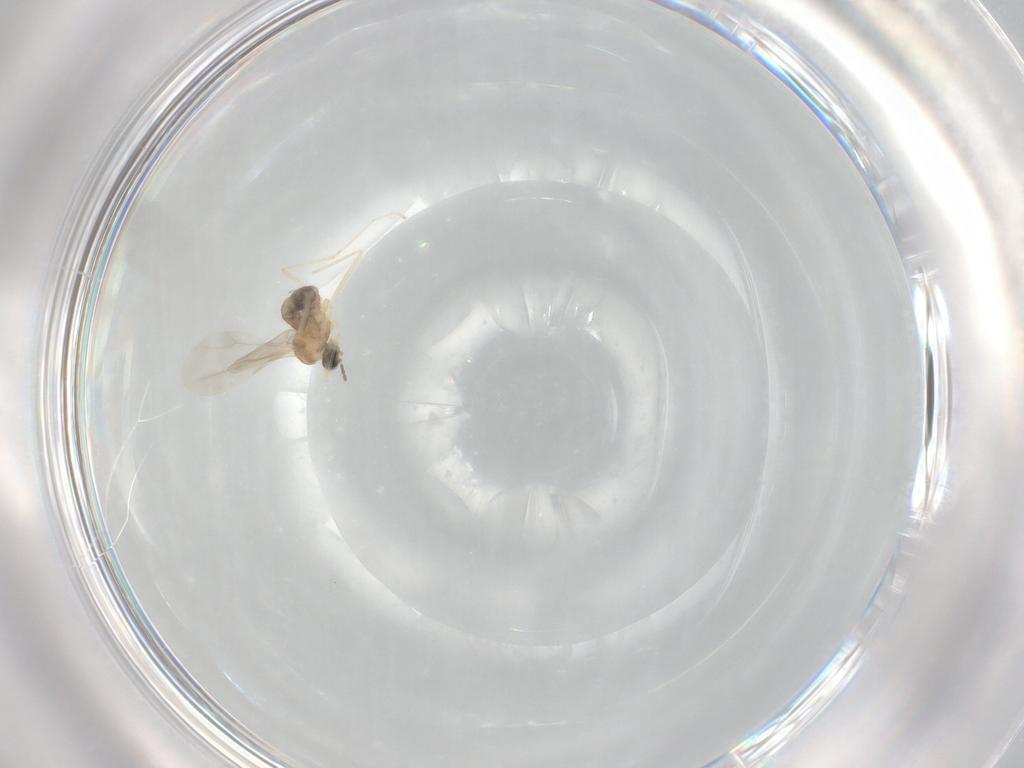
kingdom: Animalia
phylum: Arthropoda
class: Insecta
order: Diptera
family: Cecidomyiidae
